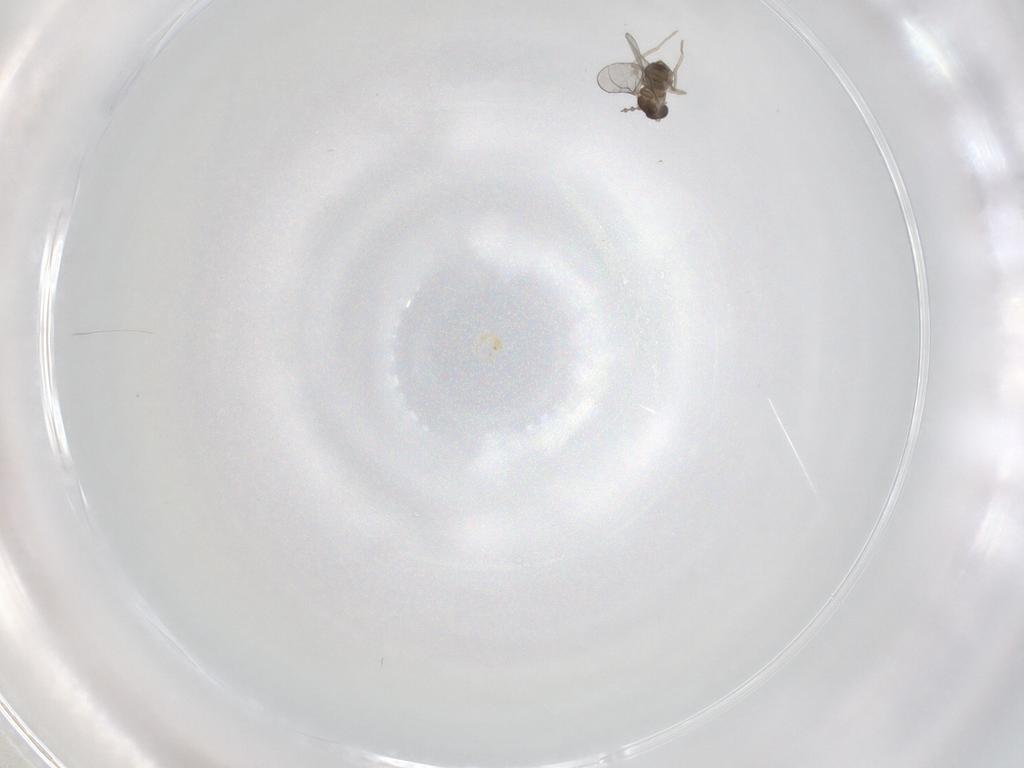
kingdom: Animalia
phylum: Arthropoda
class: Insecta
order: Diptera
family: Cecidomyiidae
